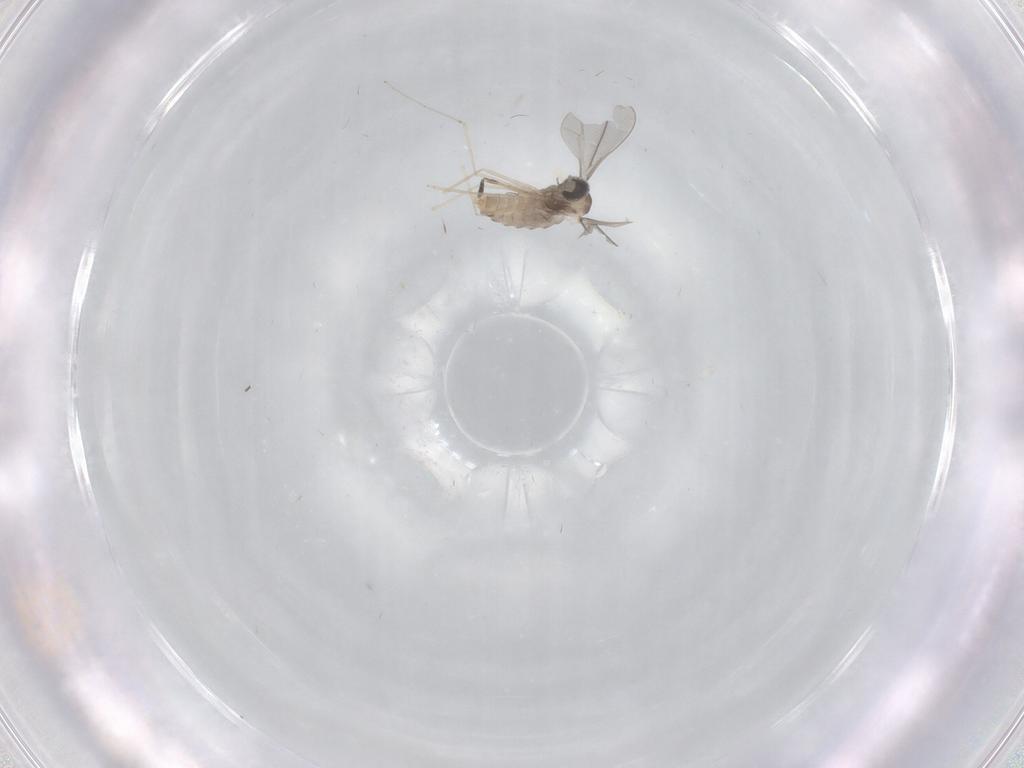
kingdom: Animalia
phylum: Arthropoda
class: Insecta
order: Diptera
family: Cecidomyiidae
